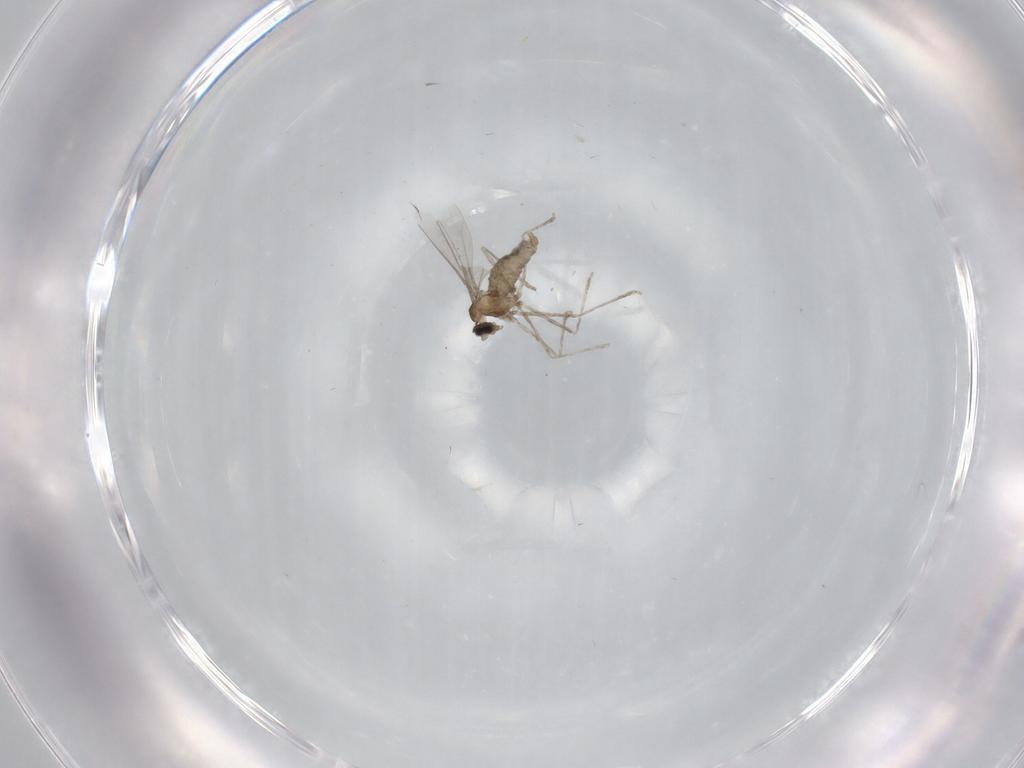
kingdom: Animalia
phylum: Arthropoda
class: Insecta
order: Diptera
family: Cecidomyiidae
